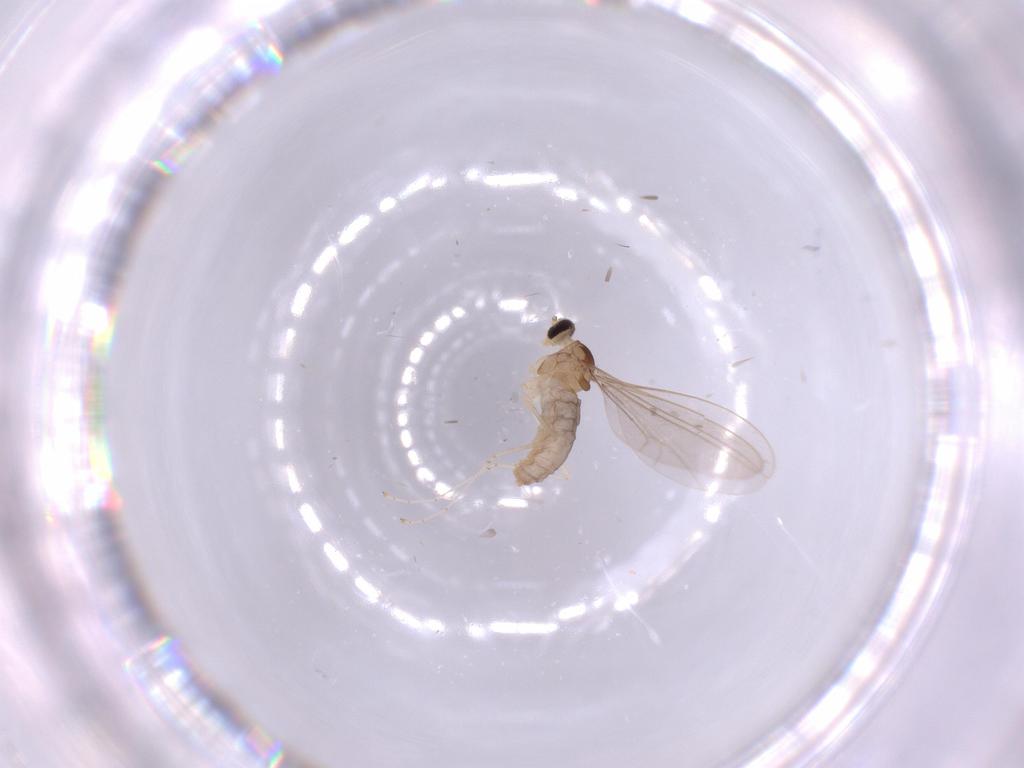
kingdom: Animalia
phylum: Arthropoda
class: Insecta
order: Diptera
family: Cecidomyiidae
